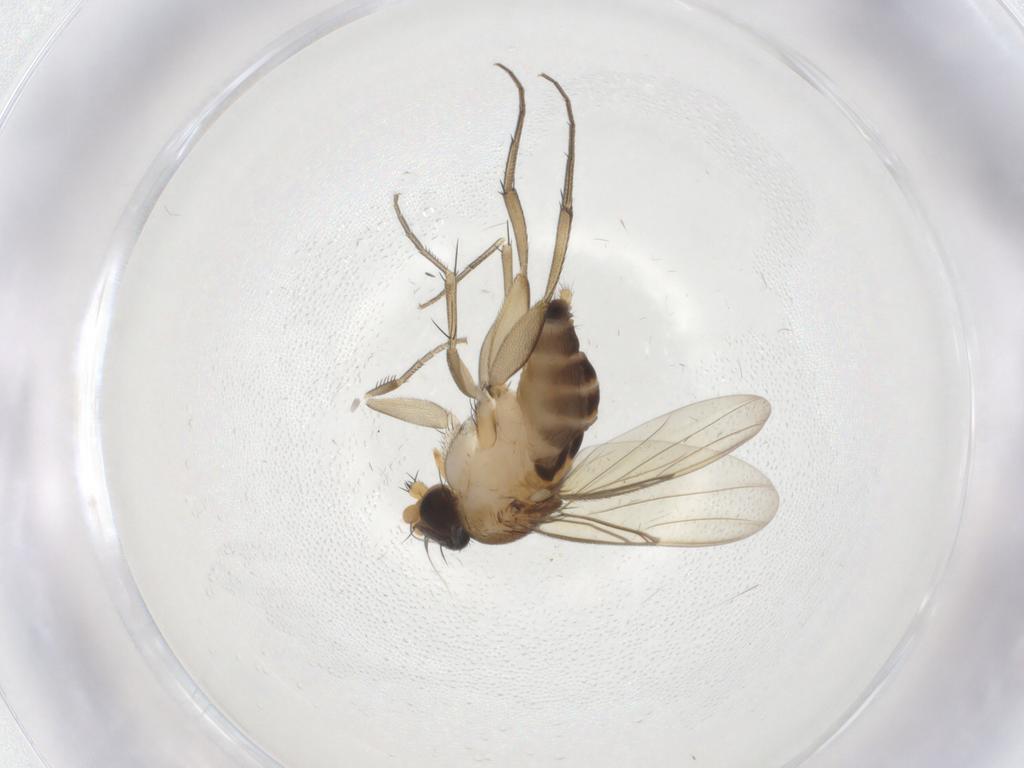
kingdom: Animalia
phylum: Arthropoda
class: Insecta
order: Diptera
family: Phoridae
